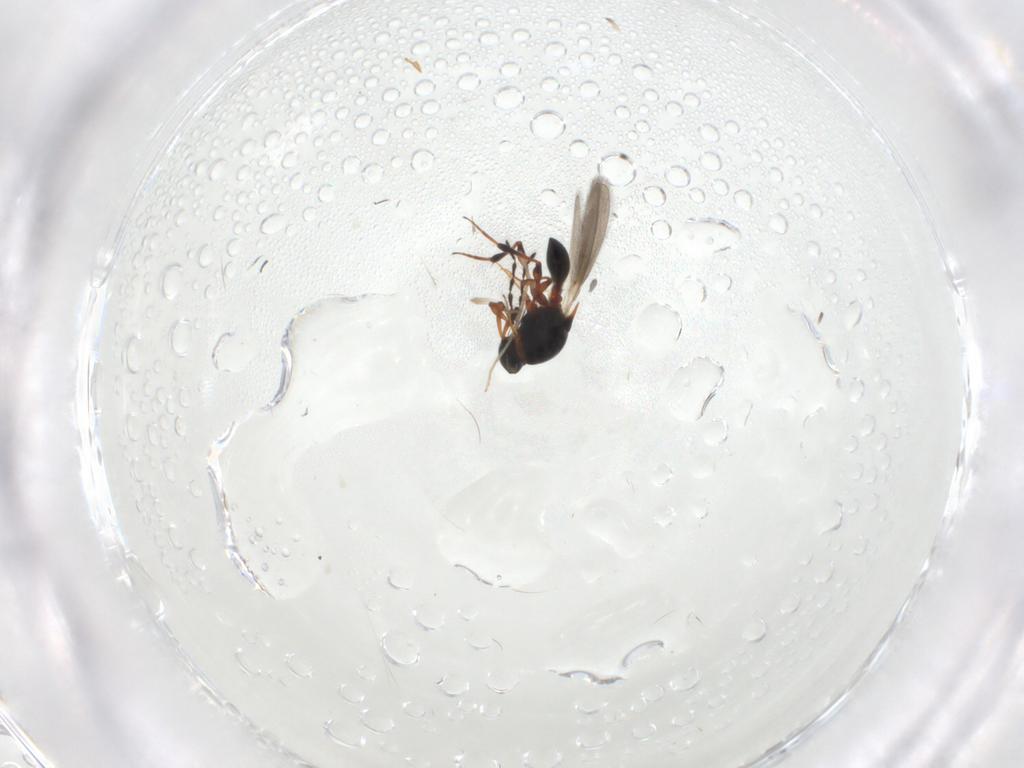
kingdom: Animalia
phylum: Arthropoda
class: Insecta
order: Hymenoptera
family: Platygastridae
